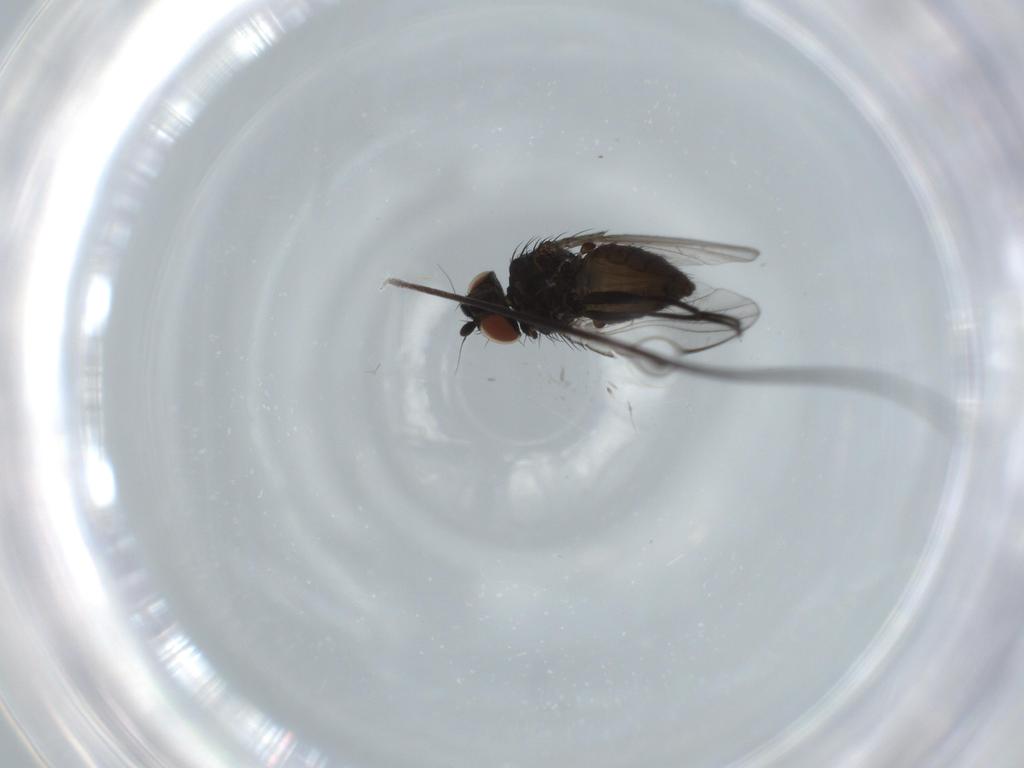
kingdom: Animalia
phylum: Arthropoda
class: Insecta
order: Diptera
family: Milichiidae
